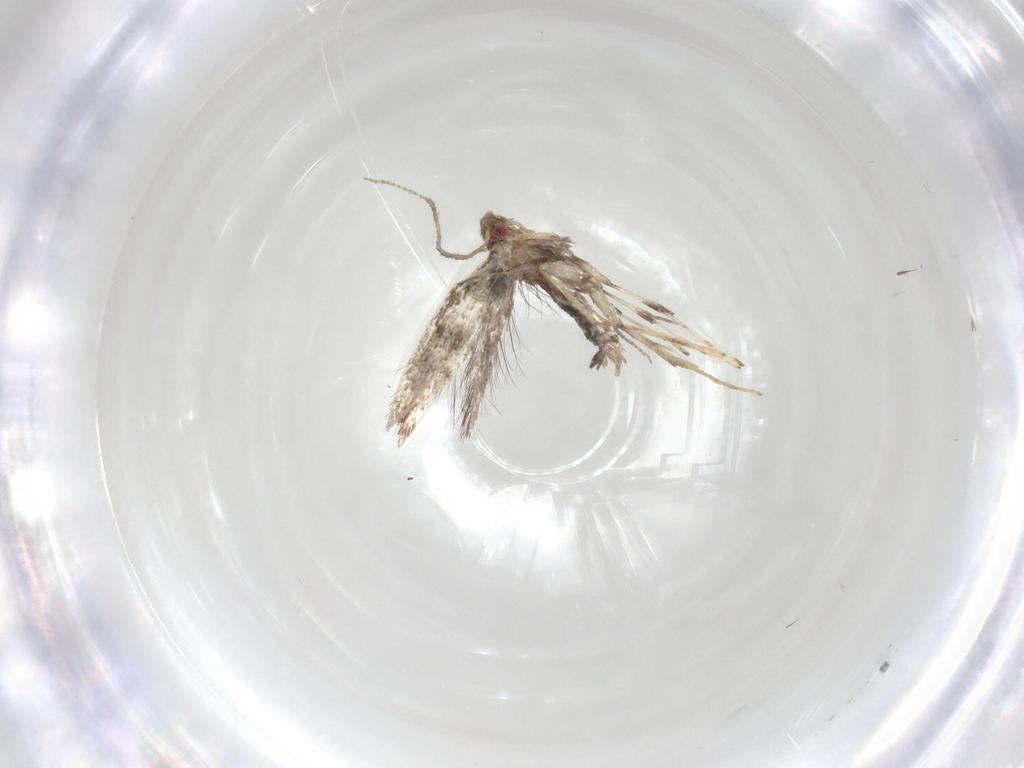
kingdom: Animalia
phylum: Arthropoda
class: Insecta
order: Lepidoptera
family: Gracillariidae
